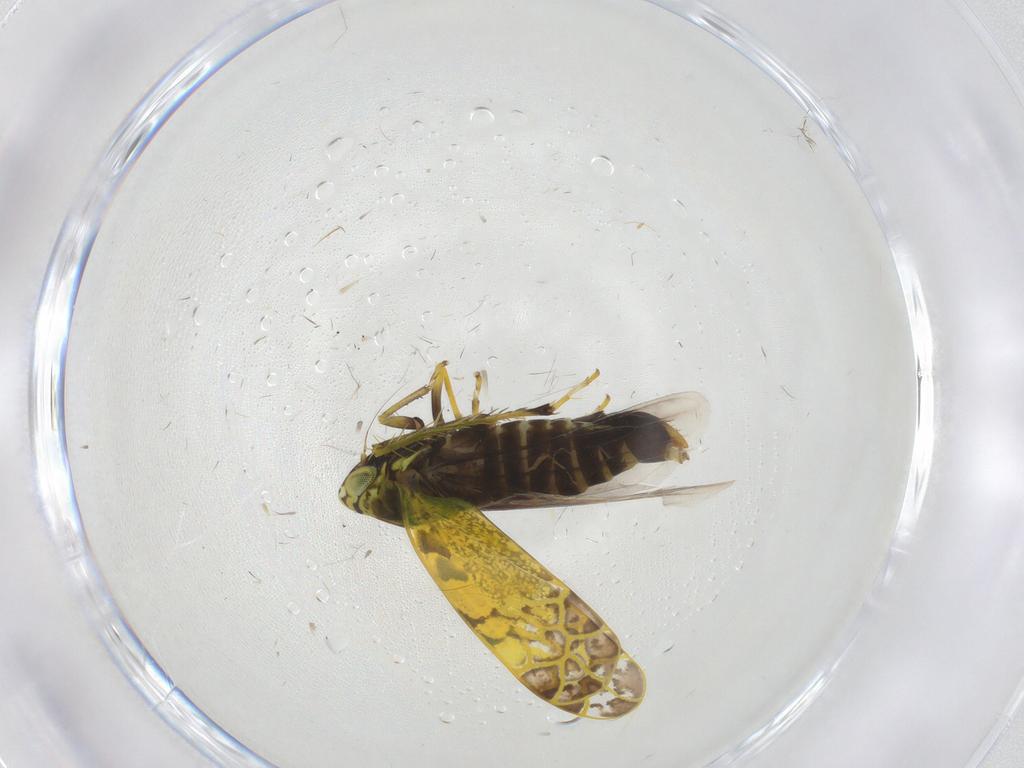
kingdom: Animalia
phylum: Arthropoda
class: Insecta
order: Hemiptera
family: Cicadellidae
